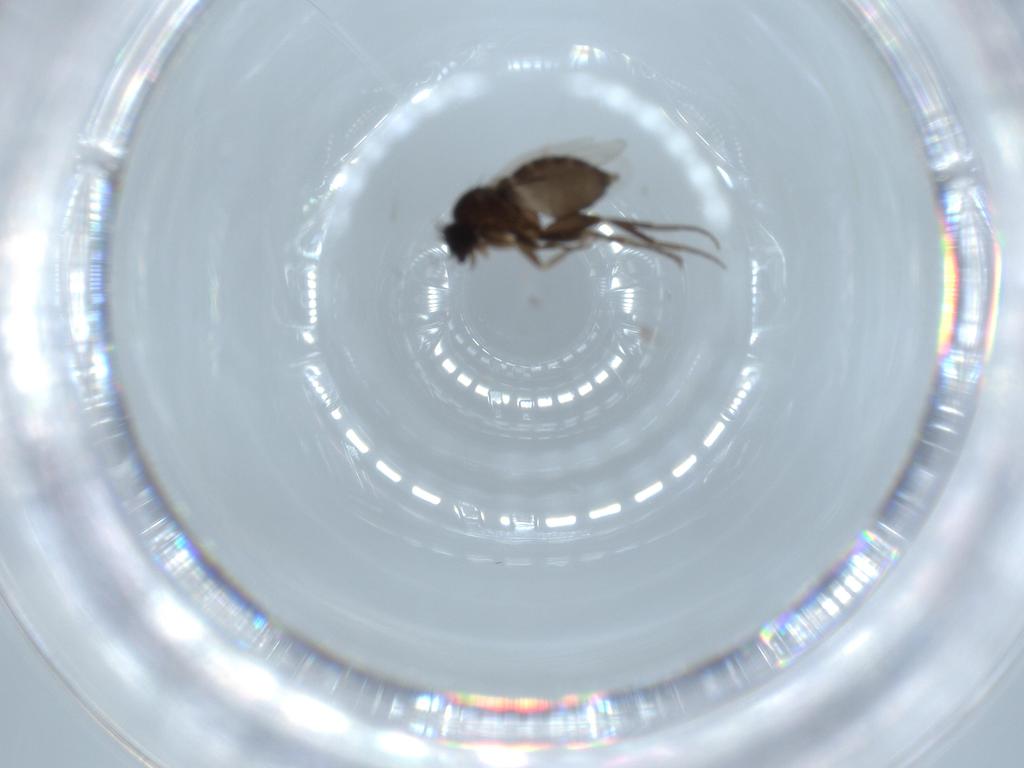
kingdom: Animalia
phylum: Arthropoda
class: Insecta
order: Diptera
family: Phoridae
